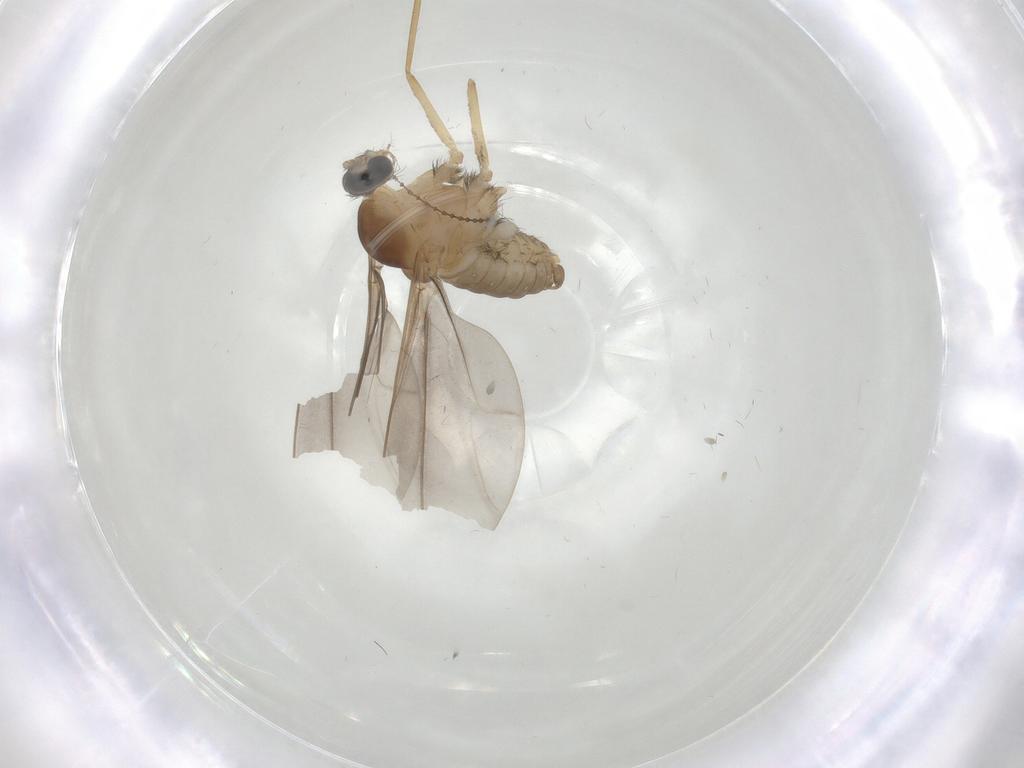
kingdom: Animalia
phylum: Arthropoda
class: Insecta
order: Diptera
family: Cecidomyiidae
